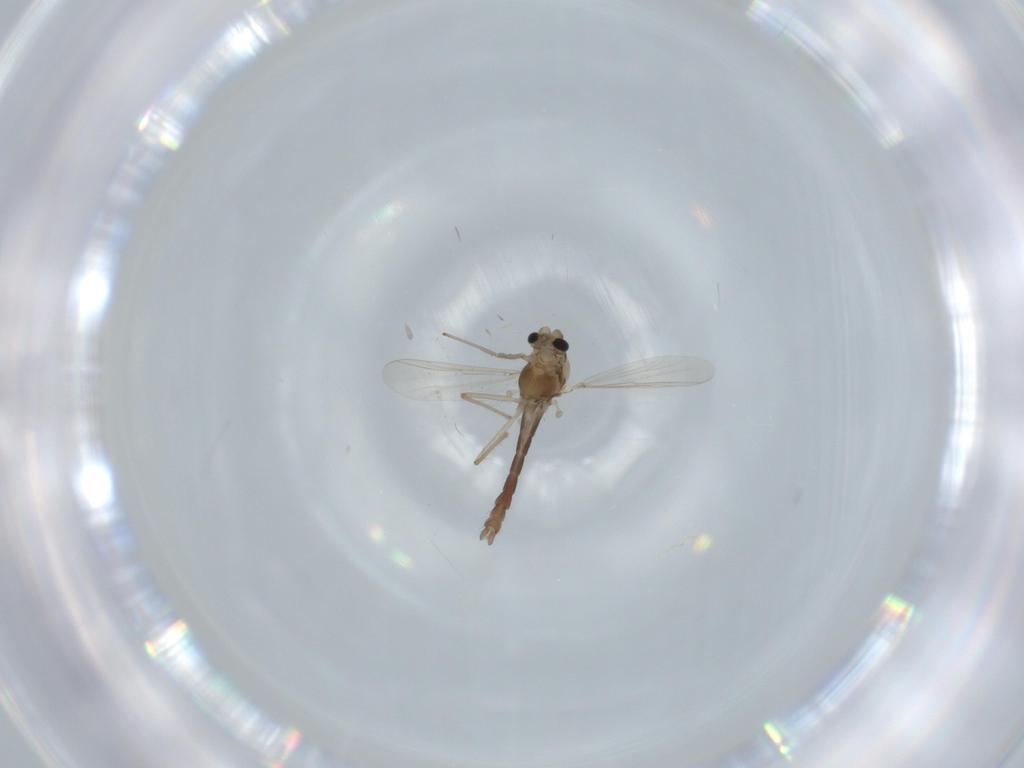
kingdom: Animalia
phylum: Arthropoda
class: Insecta
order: Diptera
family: Chironomidae
